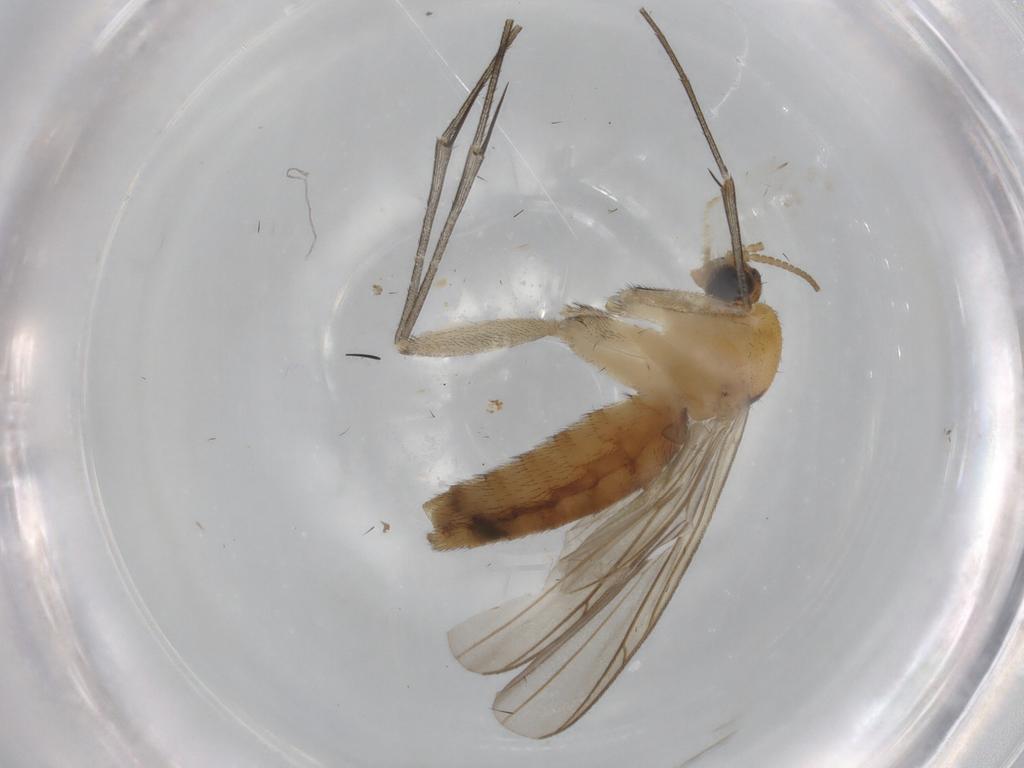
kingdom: Animalia
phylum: Arthropoda
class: Insecta
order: Diptera
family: Keroplatidae
